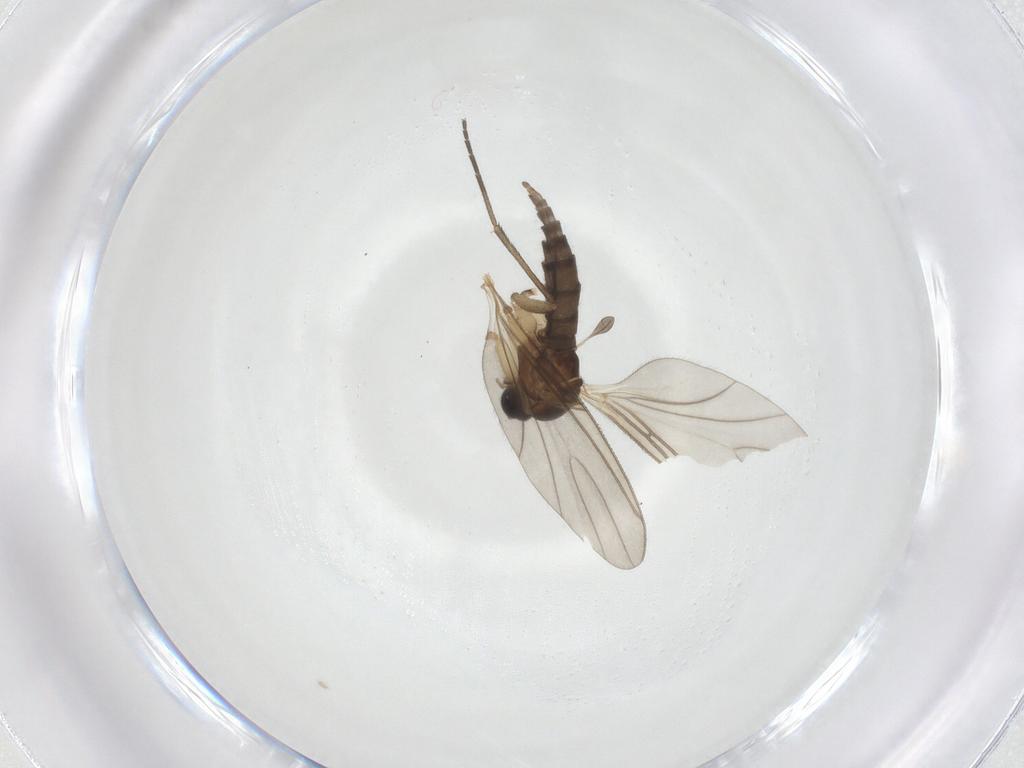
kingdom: Animalia
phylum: Arthropoda
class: Insecta
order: Diptera
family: Sciaridae
